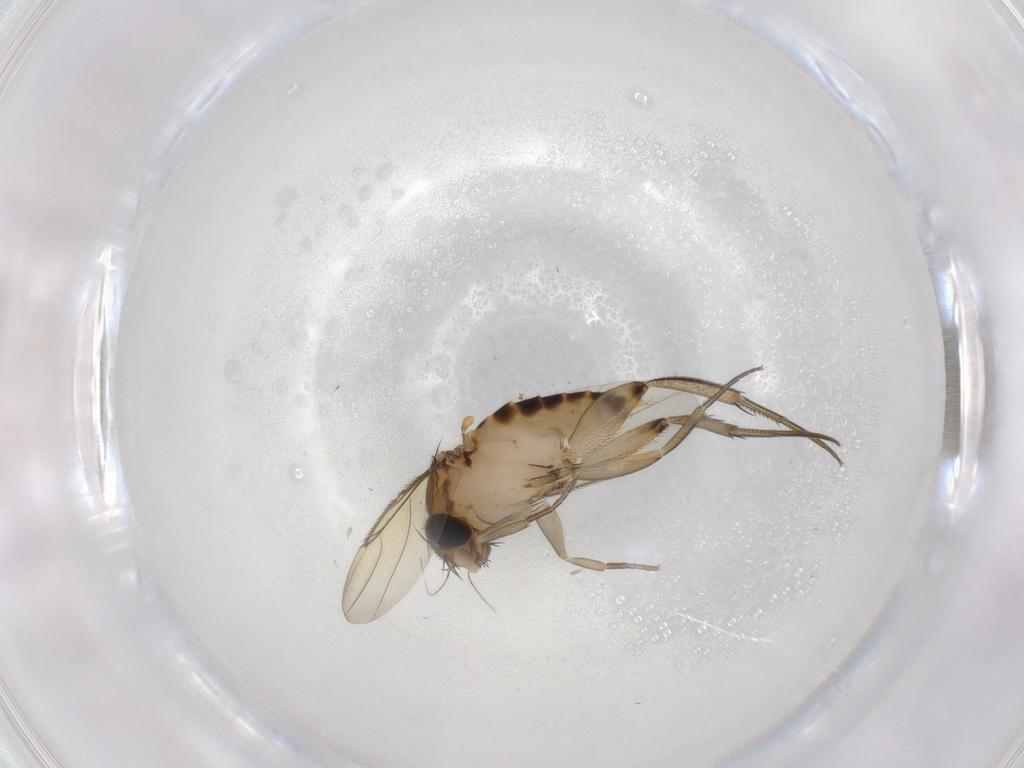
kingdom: Animalia
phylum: Arthropoda
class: Insecta
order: Diptera
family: Phoridae
